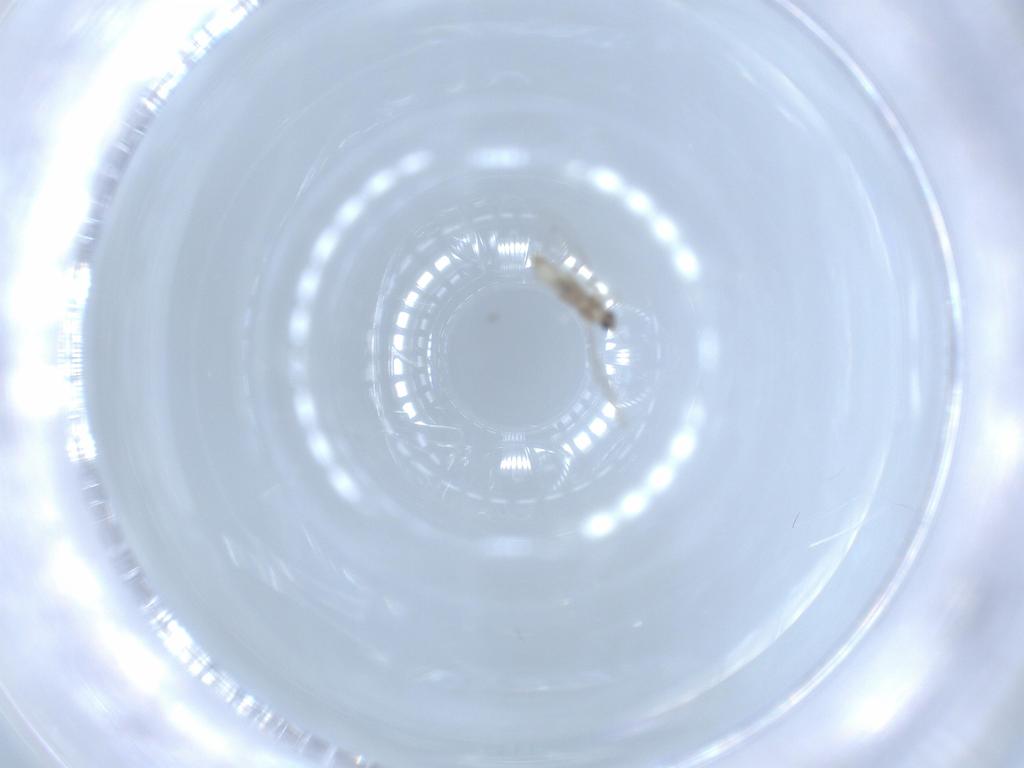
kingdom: Animalia
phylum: Arthropoda
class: Insecta
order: Diptera
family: Cecidomyiidae
